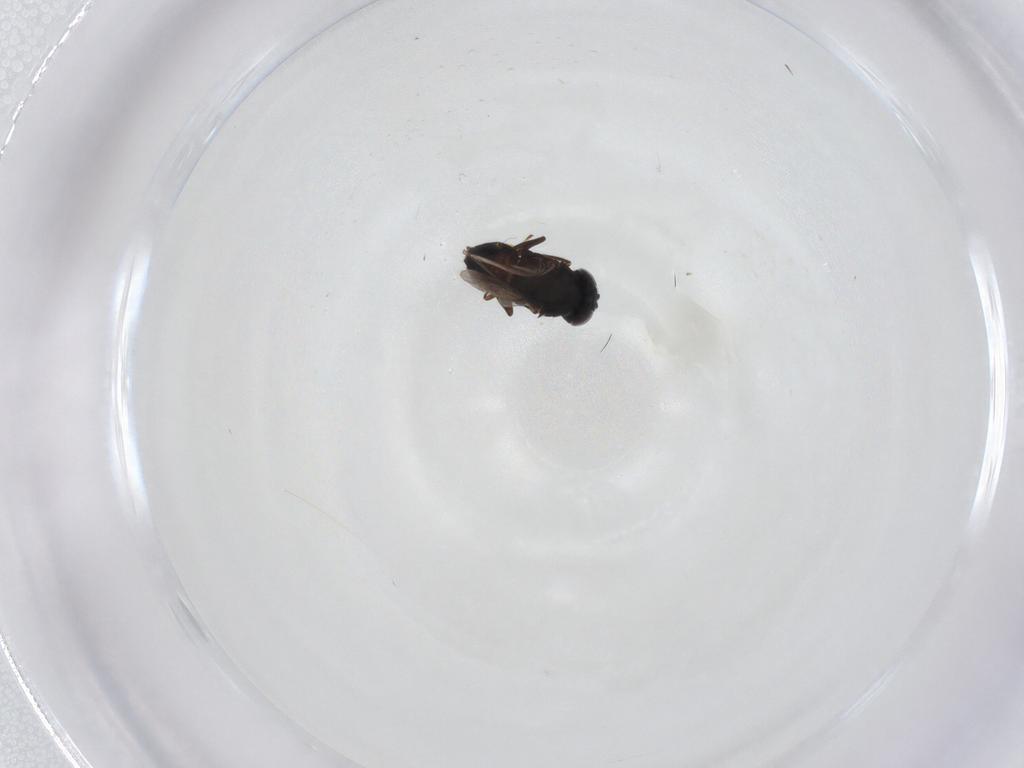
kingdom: Animalia
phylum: Arthropoda
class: Insecta
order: Hymenoptera
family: Encyrtidae
